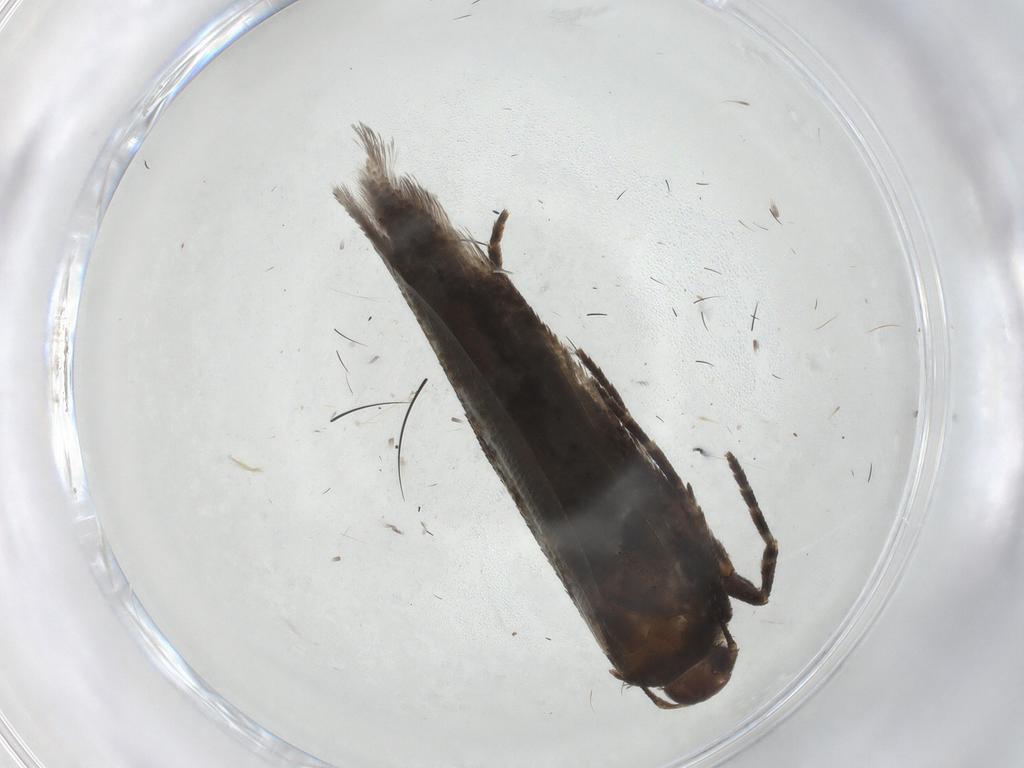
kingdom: Animalia
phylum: Arthropoda
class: Insecta
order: Lepidoptera
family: Gelechiidae
